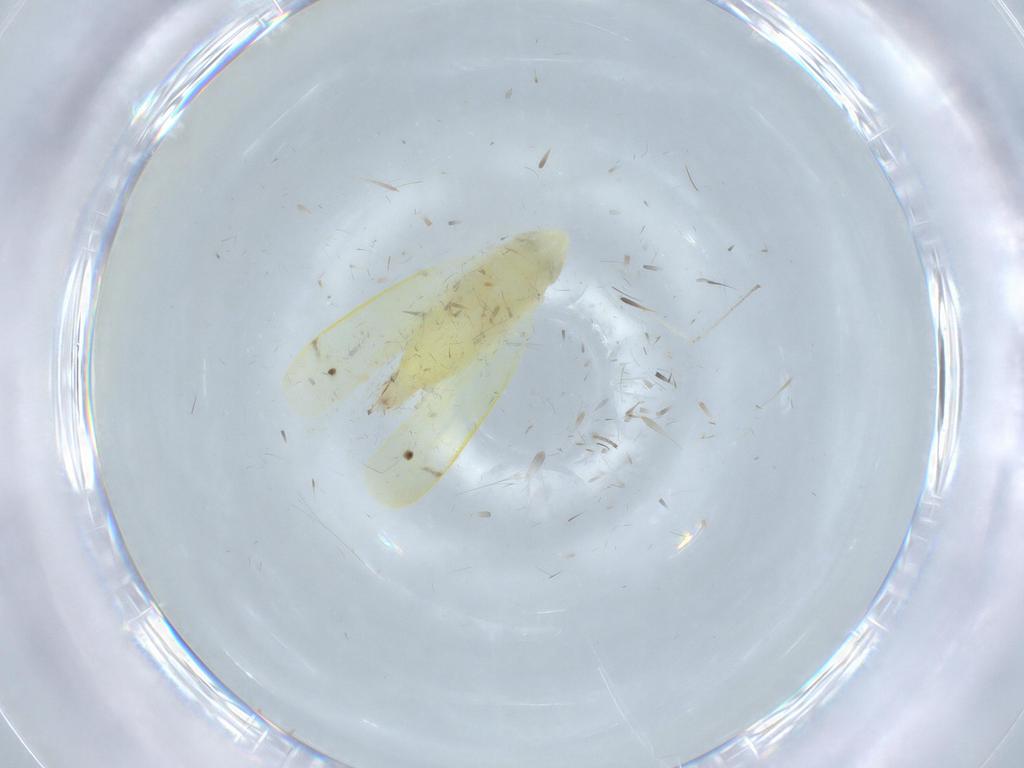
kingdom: Animalia
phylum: Arthropoda
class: Insecta
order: Hemiptera
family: Cicadellidae
